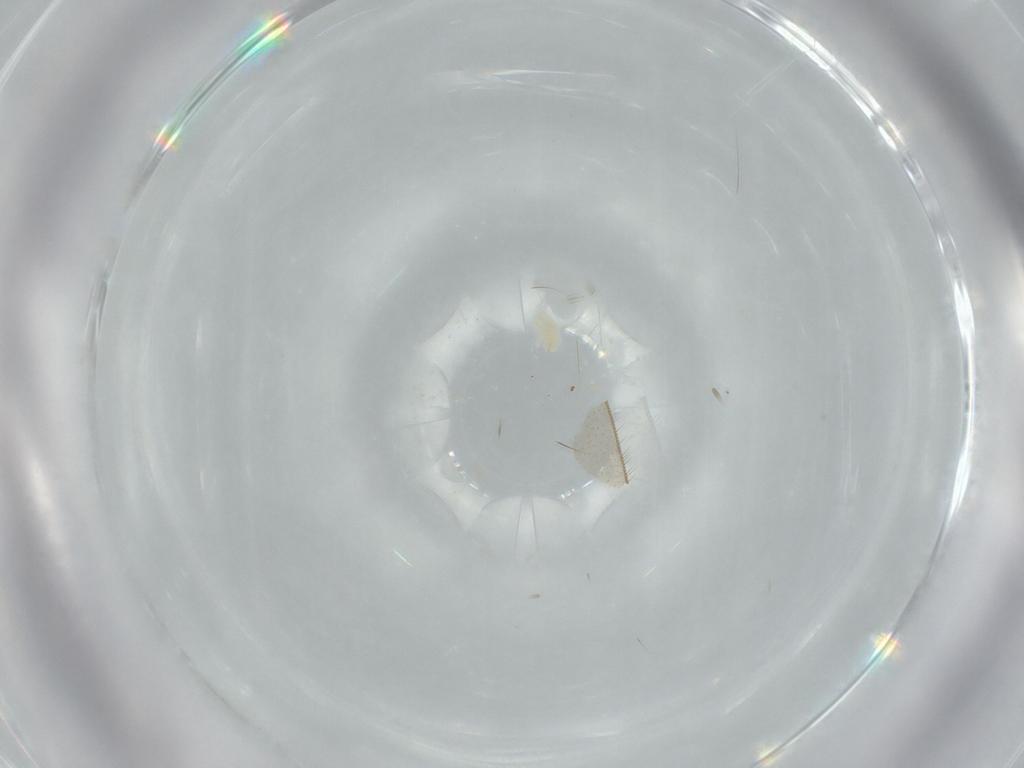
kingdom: Animalia
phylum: Arthropoda
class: Arachnida
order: Trombidiformes
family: Tetranychidae
